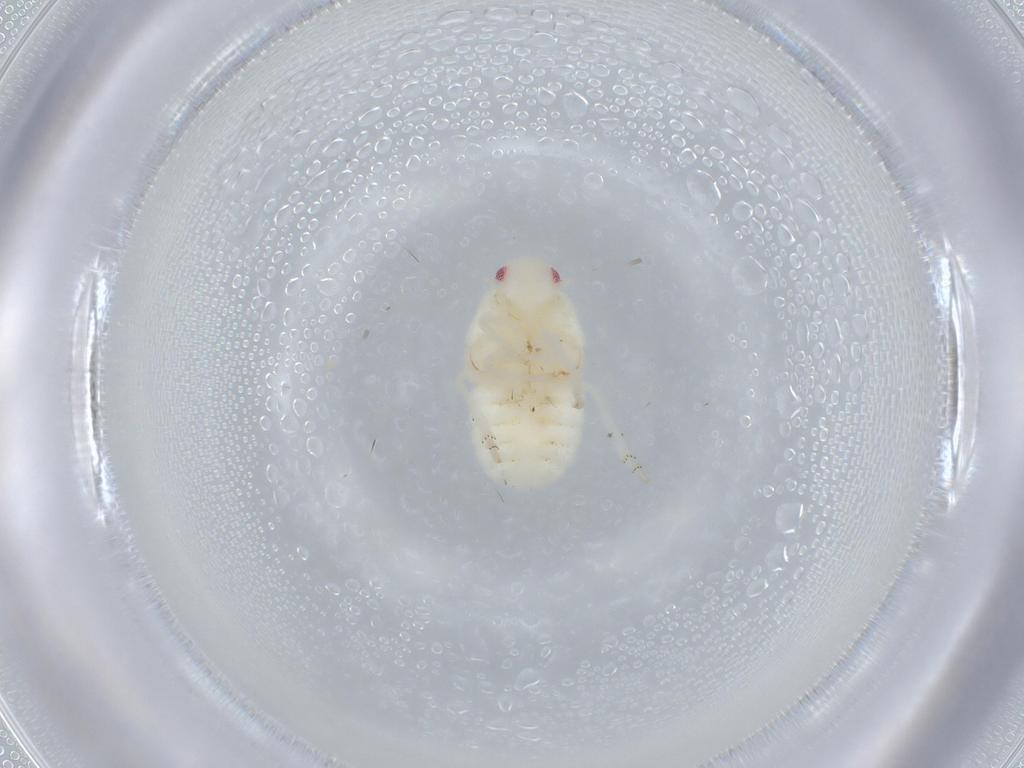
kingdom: Animalia
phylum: Arthropoda
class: Insecta
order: Hemiptera
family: Flatidae
